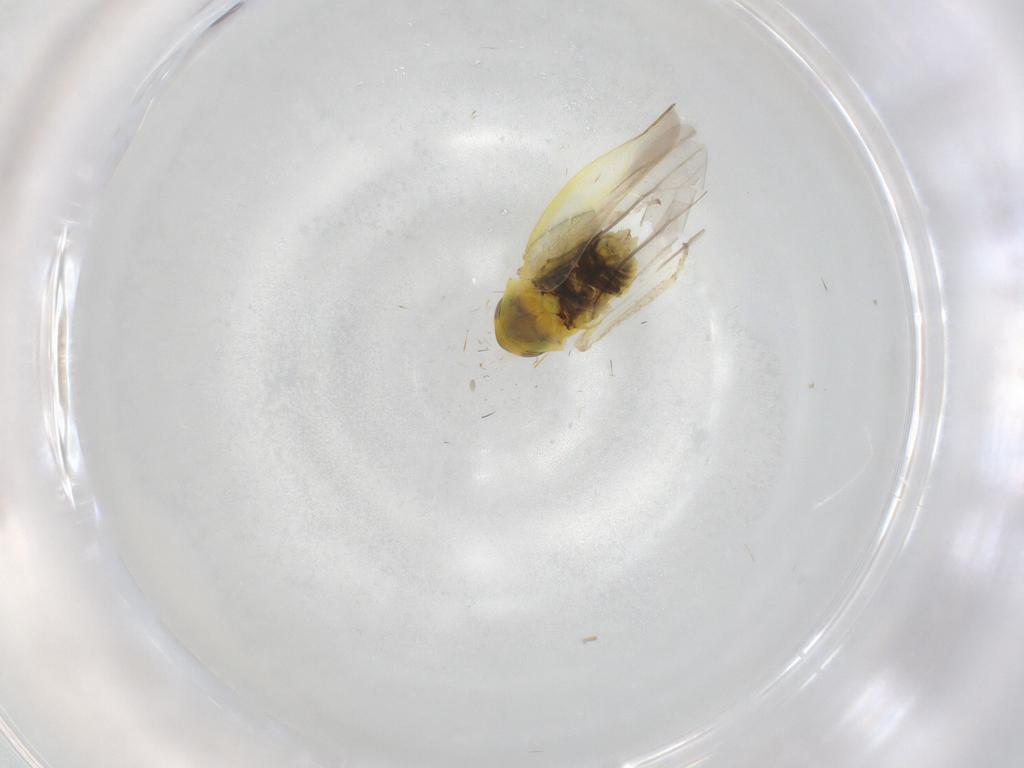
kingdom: Animalia
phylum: Arthropoda
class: Insecta
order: Hemiptera
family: Cicadellidae
